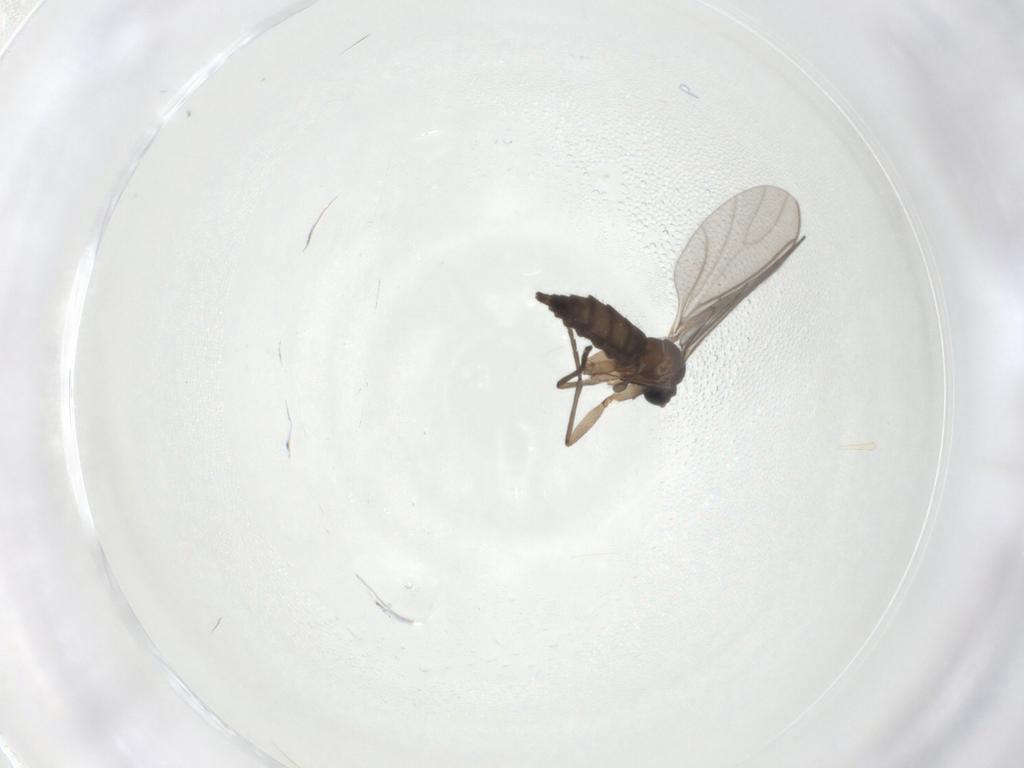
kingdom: Animalia
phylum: Arthropoda
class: Insecta
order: Diptera
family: Sciaridae
